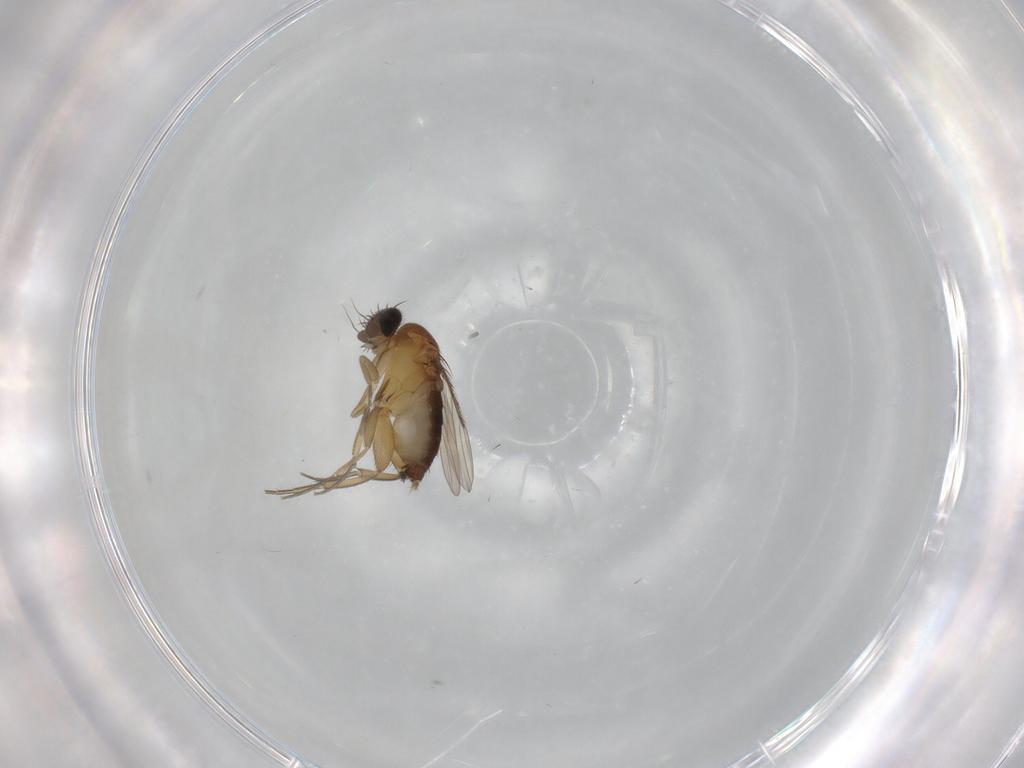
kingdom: Animalia
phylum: Arthropoda
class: Insecta
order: Diptera
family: Phoridae
